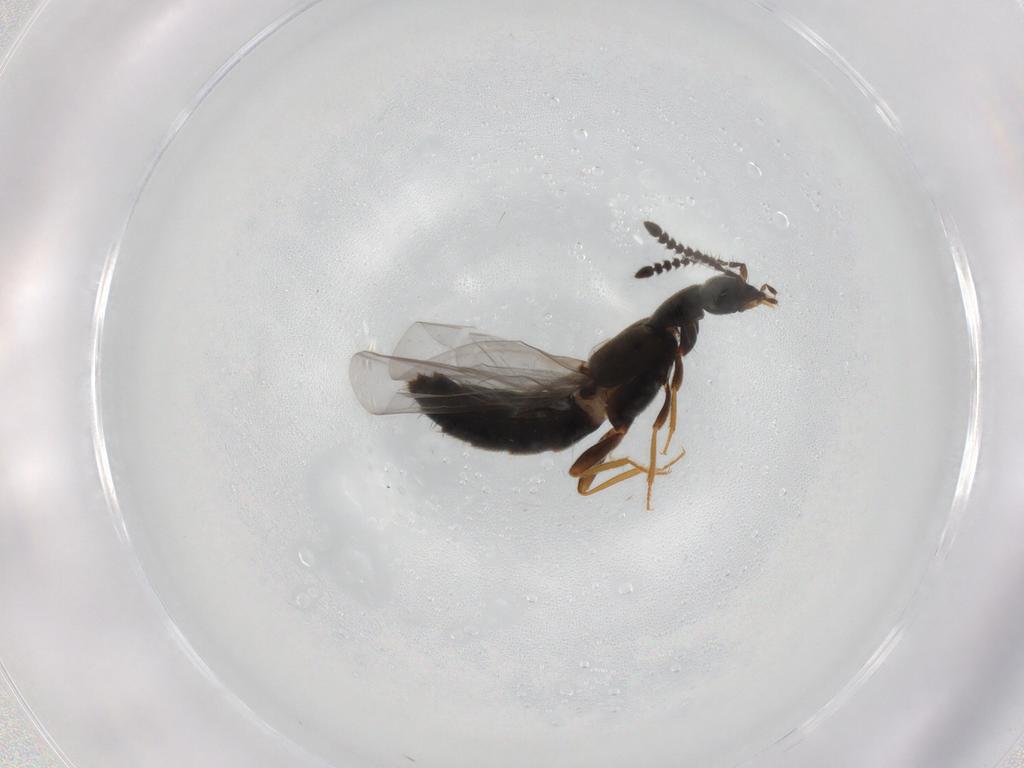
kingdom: Animalia
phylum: Arthropoda
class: Insecta
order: Coleoptera
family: Staphylinidae
